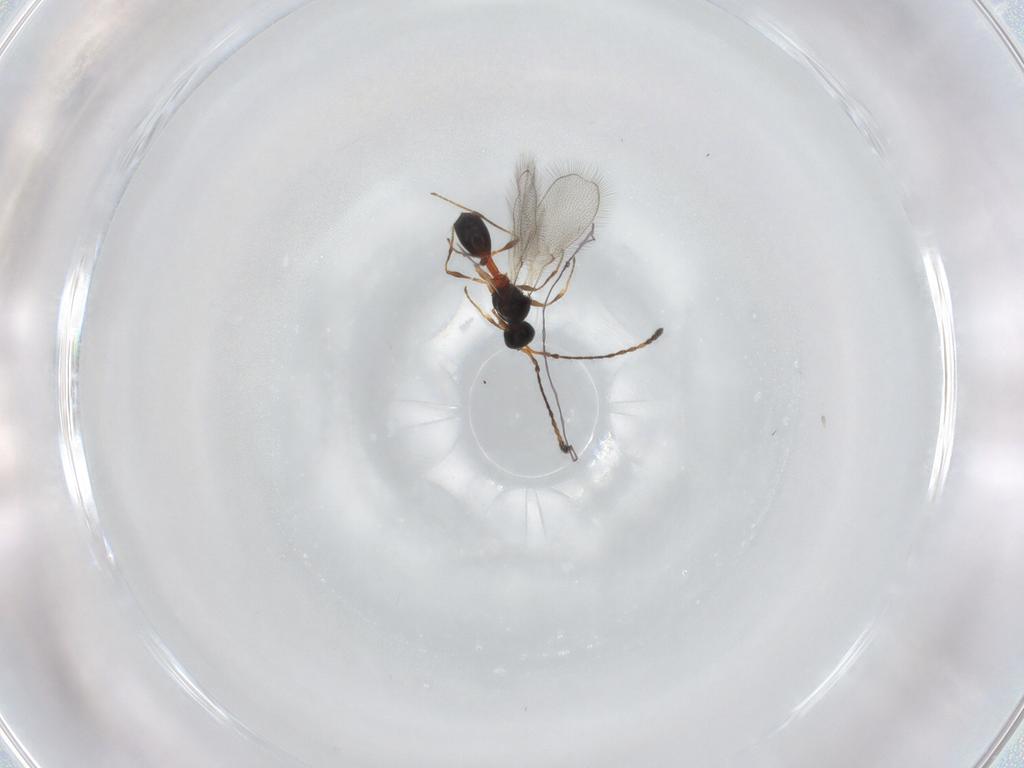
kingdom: Animalia
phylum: Arthropoda
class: Insecta
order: Hymenoptera
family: Diapriidae
